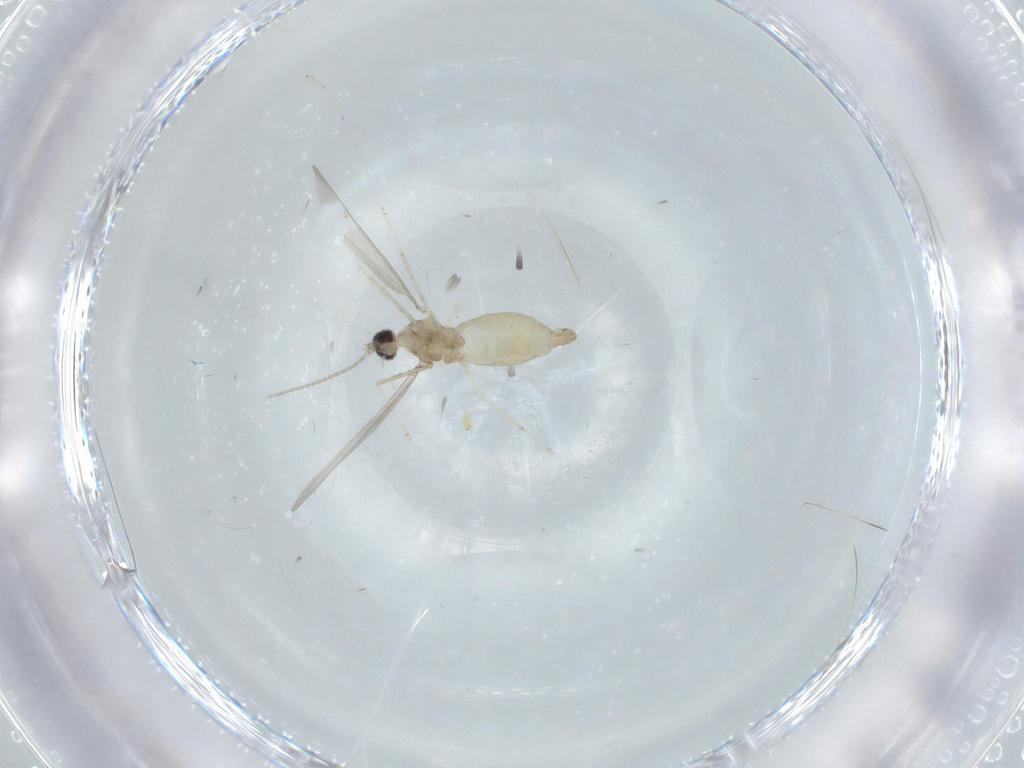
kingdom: Animalia
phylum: Arthropoda
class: Insecta
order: Diptera
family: Cecidomyiidae
